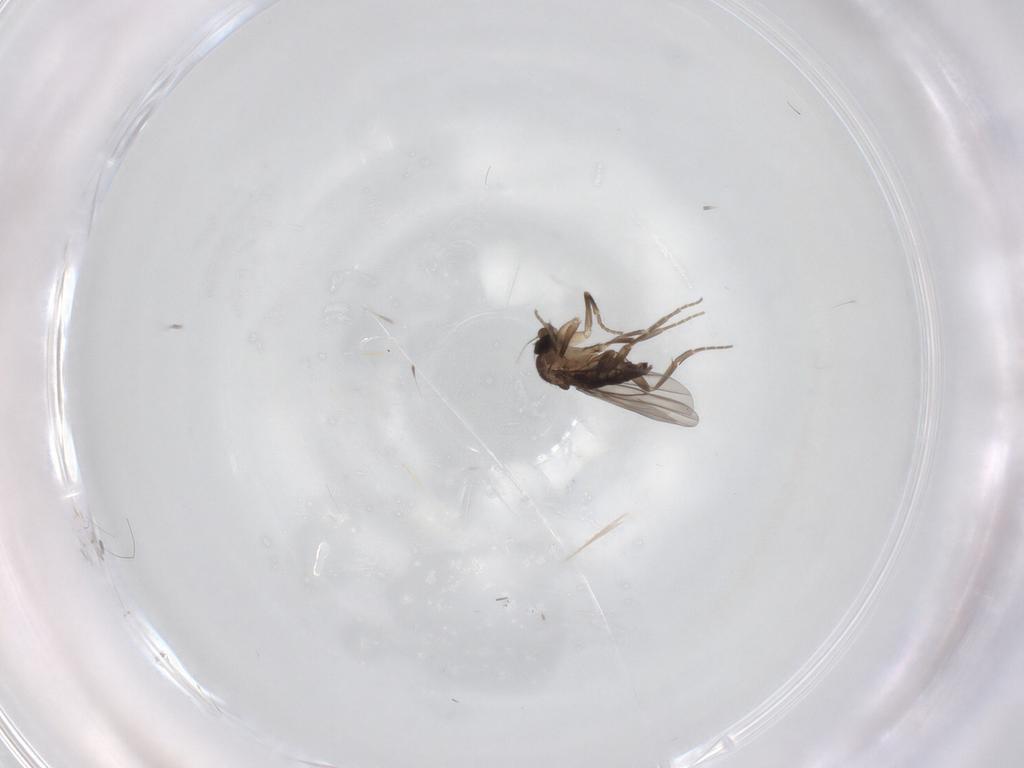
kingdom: Animalia
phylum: Arthropoda
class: Insecta
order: Diptera
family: Phoridae
